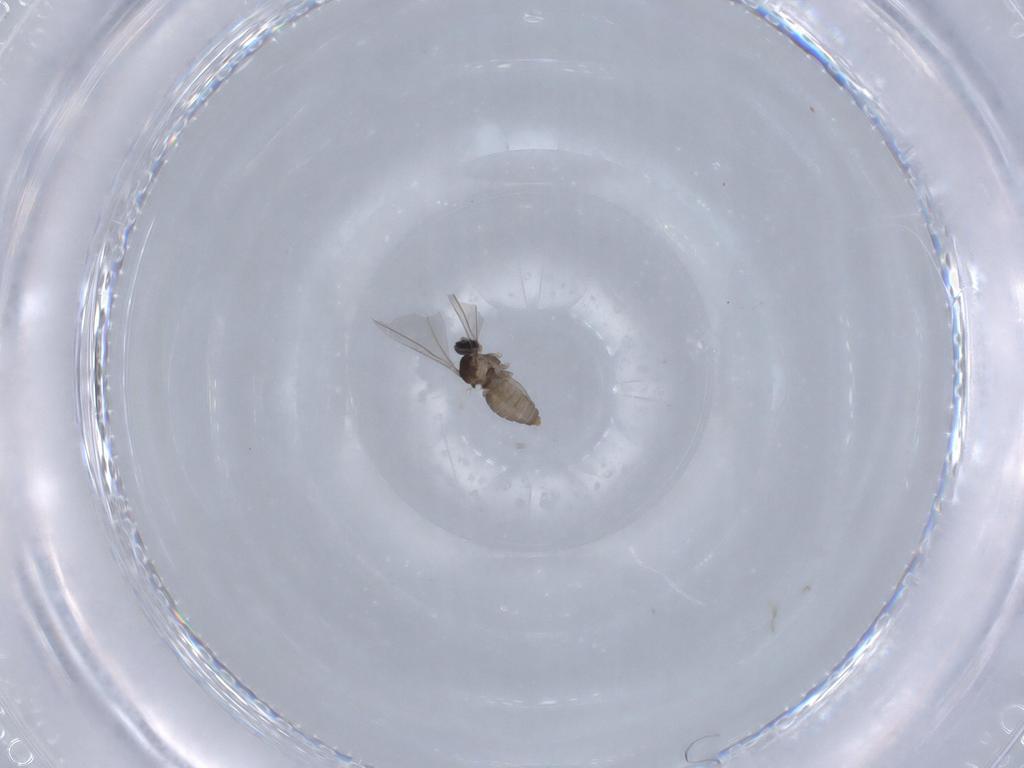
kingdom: Animalia
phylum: Arthropoda
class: Insecta
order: Diptera
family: Cecidomyiidae
